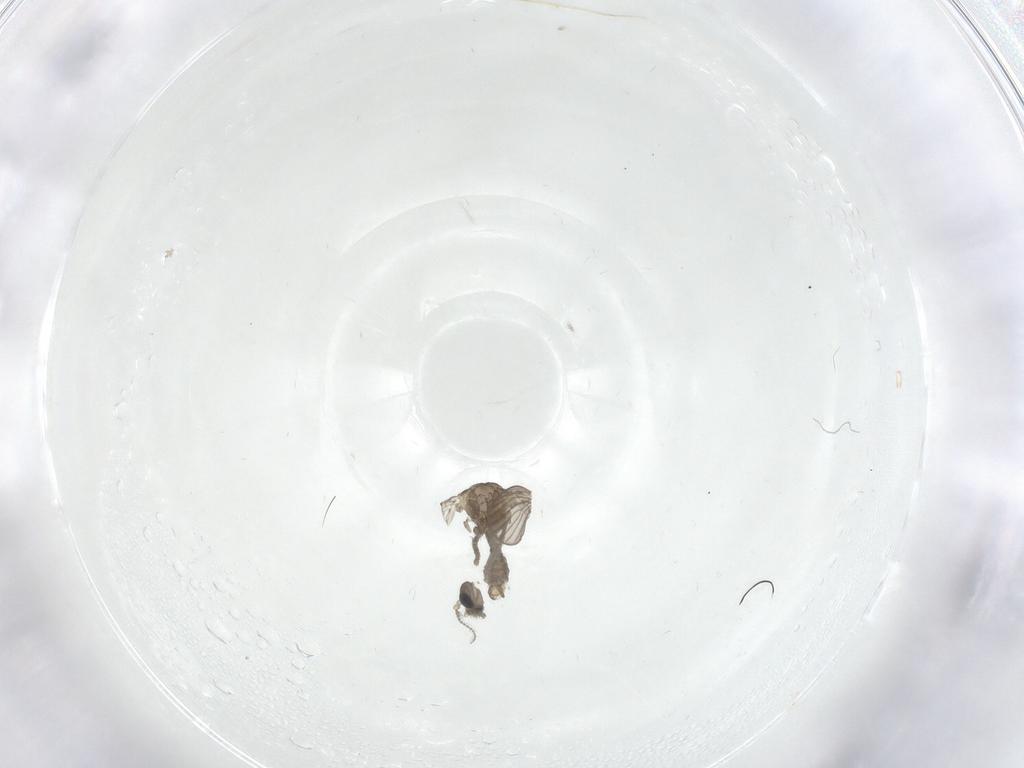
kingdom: Animalia
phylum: Arthropoda
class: Insecta
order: Diptera
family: Psychodidae
